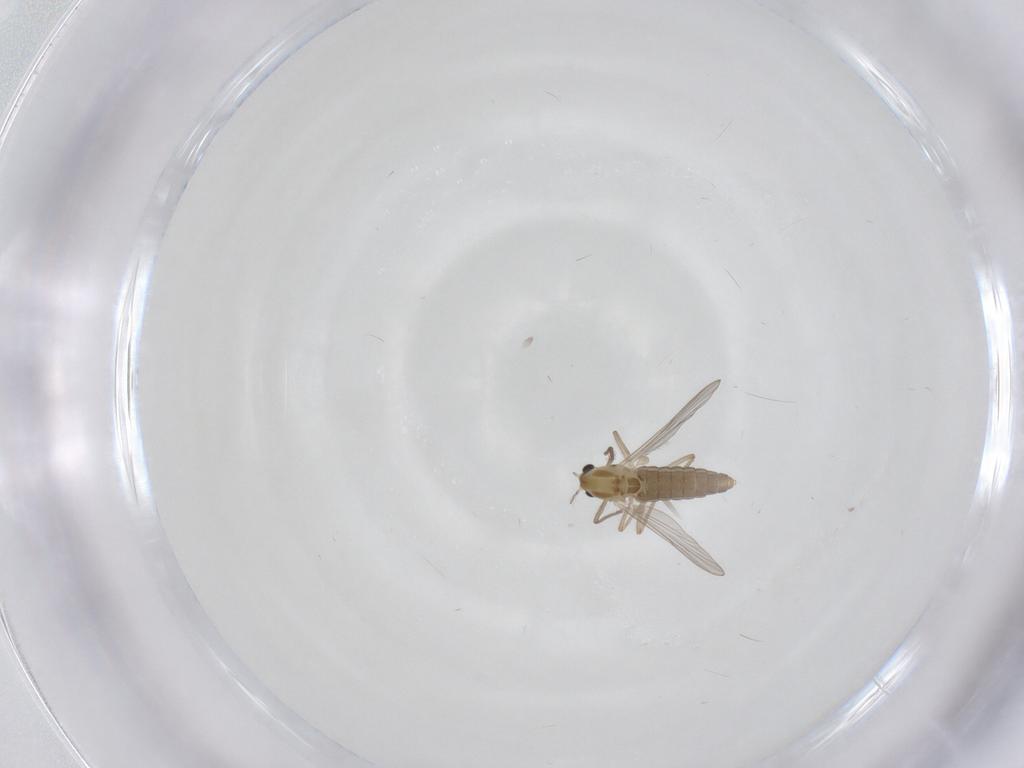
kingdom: Animalia
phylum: Arthropoda
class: Insecta
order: Diptera
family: Chironomidae
